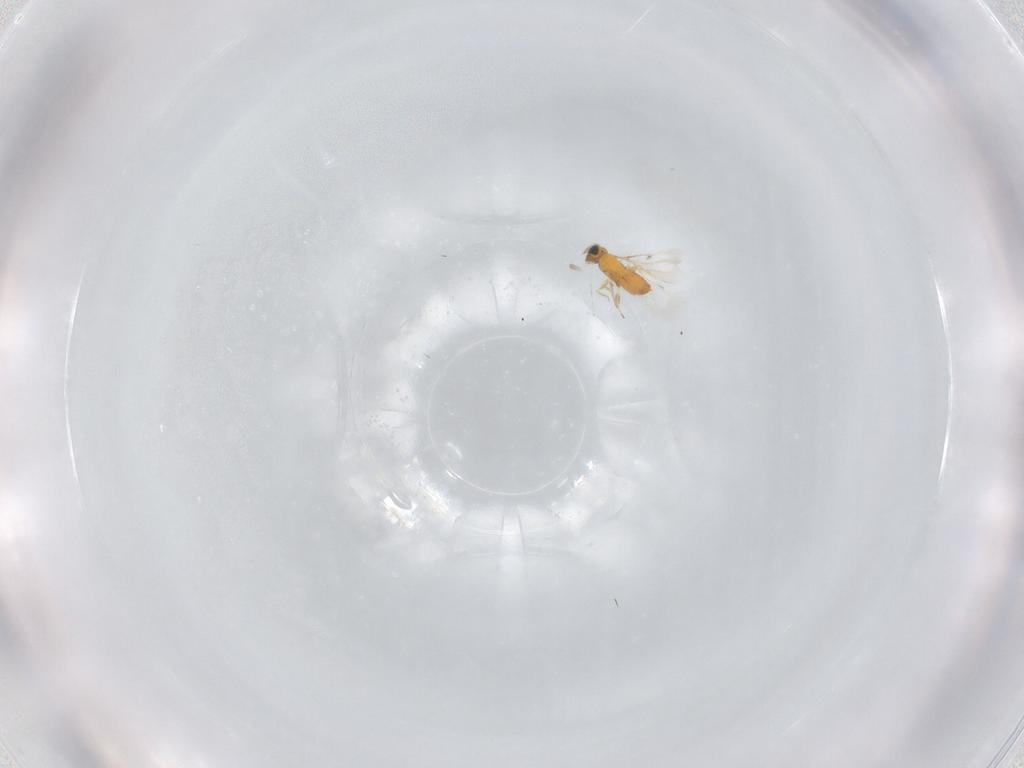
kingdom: Animalia
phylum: Arthropoda
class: Insecta
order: Hymenoptera
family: Trichogrammatidae
